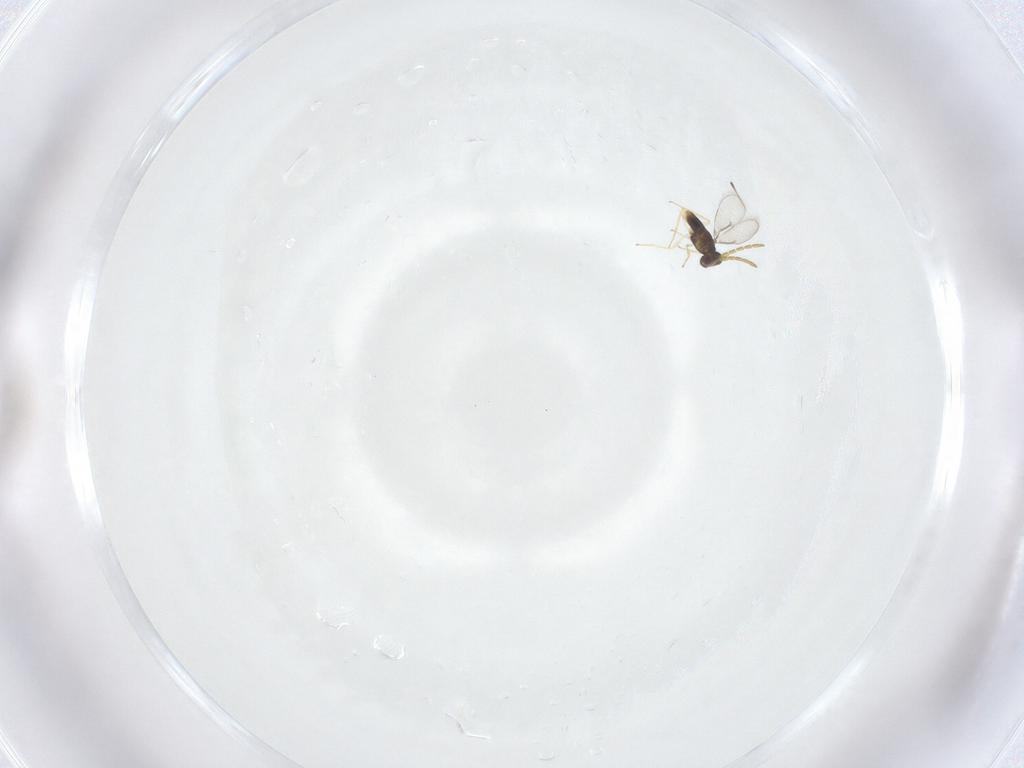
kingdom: Animalia
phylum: Arthropoda
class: Insecta
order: Hymenoptera
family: Aphelinidae
